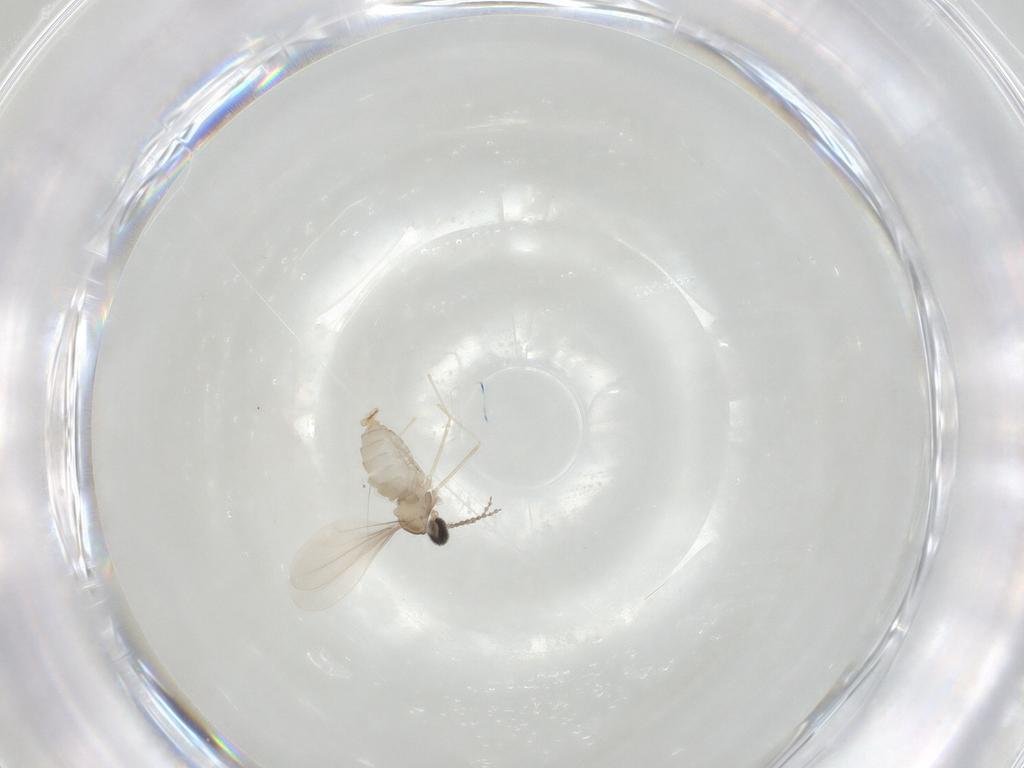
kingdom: Animalia
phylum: Arthropoda
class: Insecta
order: Diptera
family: Cecidomyiidae
